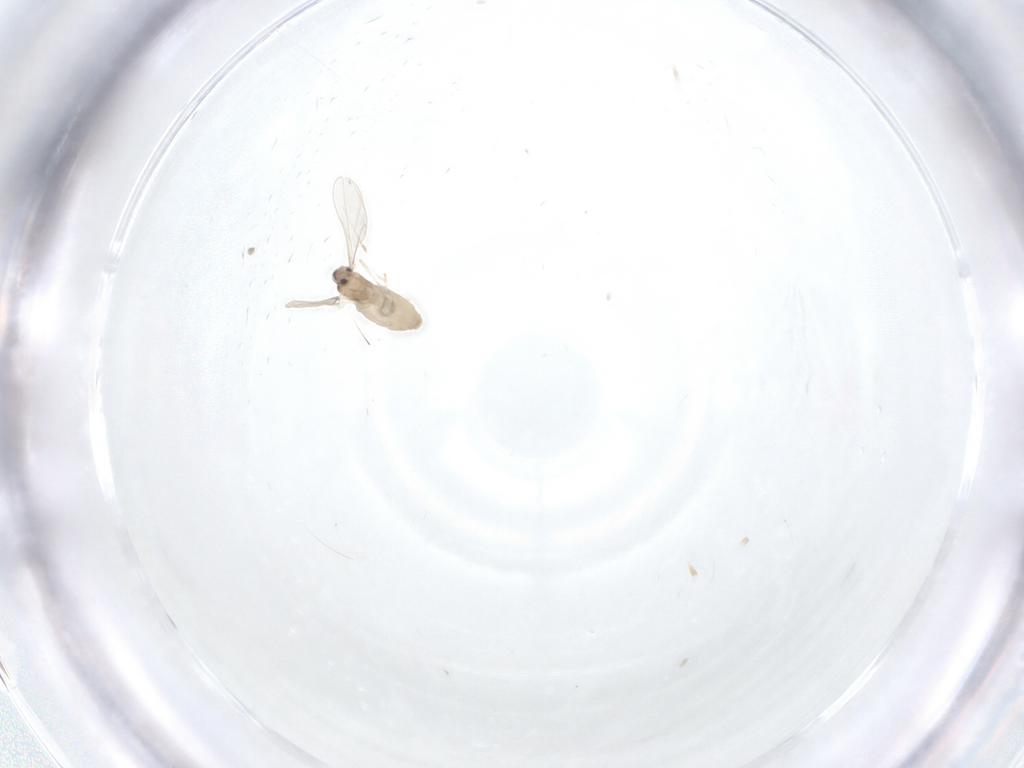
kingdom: Animalia
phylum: Arthropoda
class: Insecta
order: Diptera
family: Cecidomyiidae
